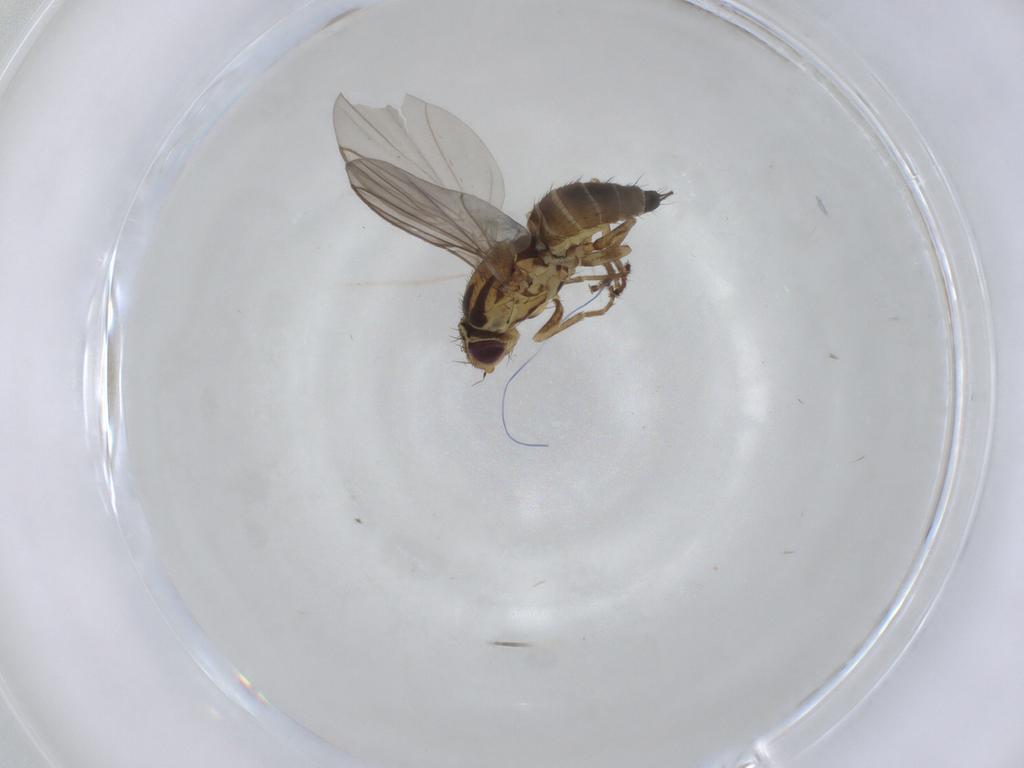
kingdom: Animalia
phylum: Arthropoda
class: Insecta
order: Diptera
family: Agromyzidae
